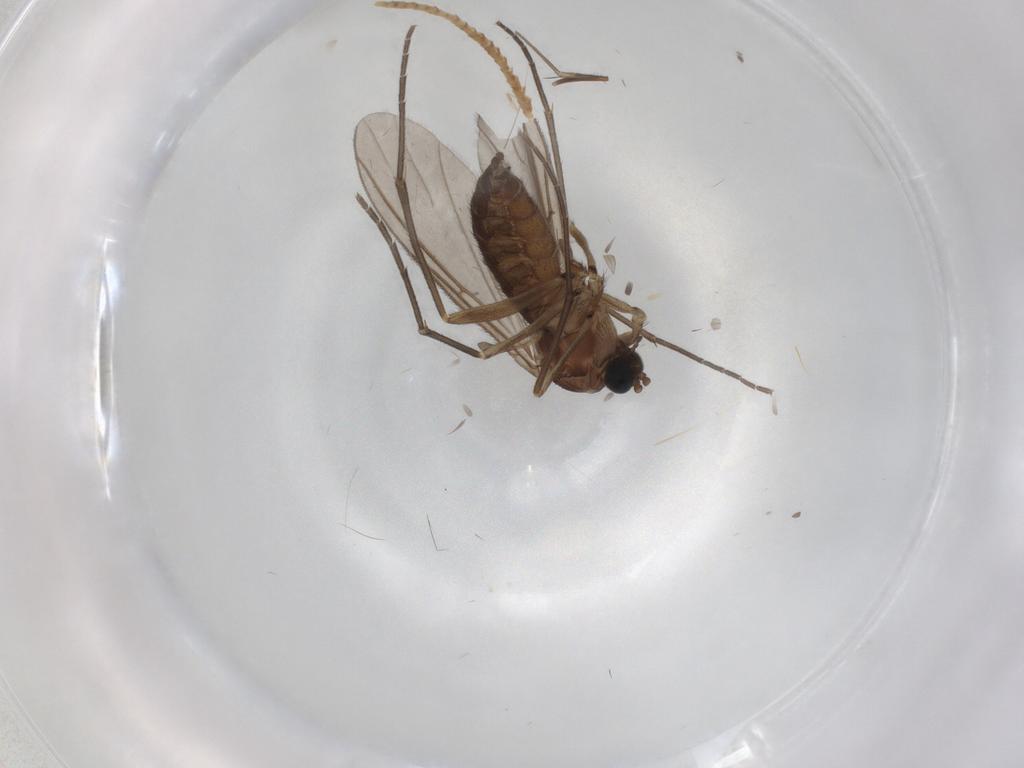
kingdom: Animalia
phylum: Arthropoda
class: Insecta
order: Diptera
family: Sciaridae
